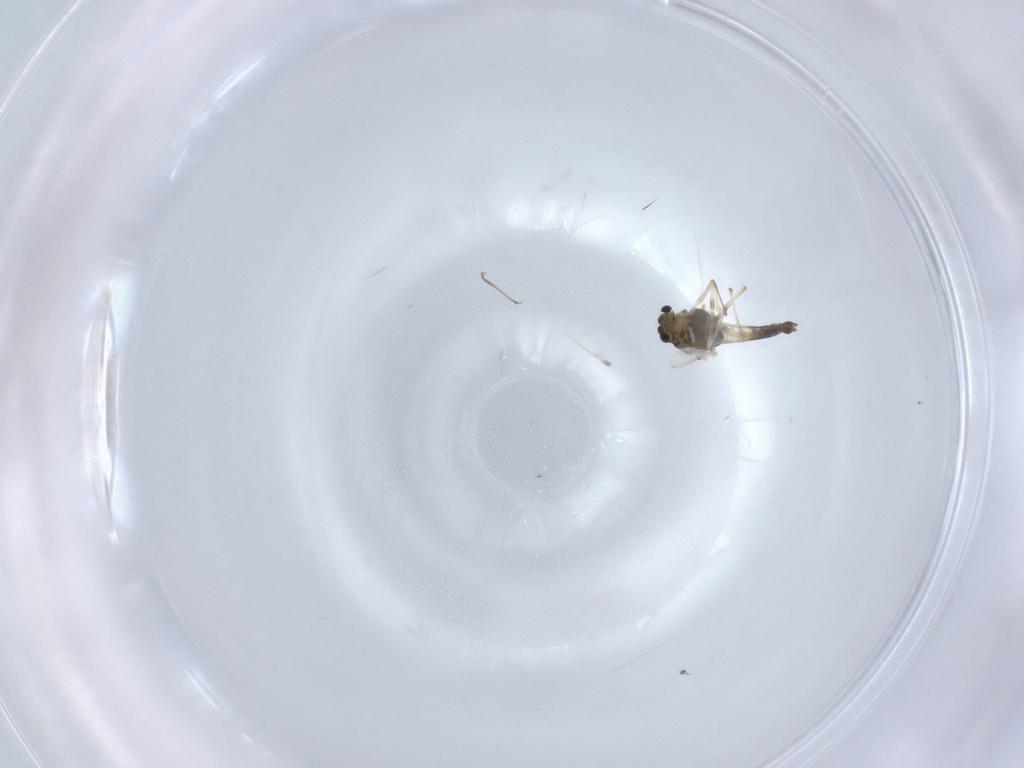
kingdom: Animalia
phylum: Arthropoda
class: Insecta
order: Diptera
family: Chironomidae
